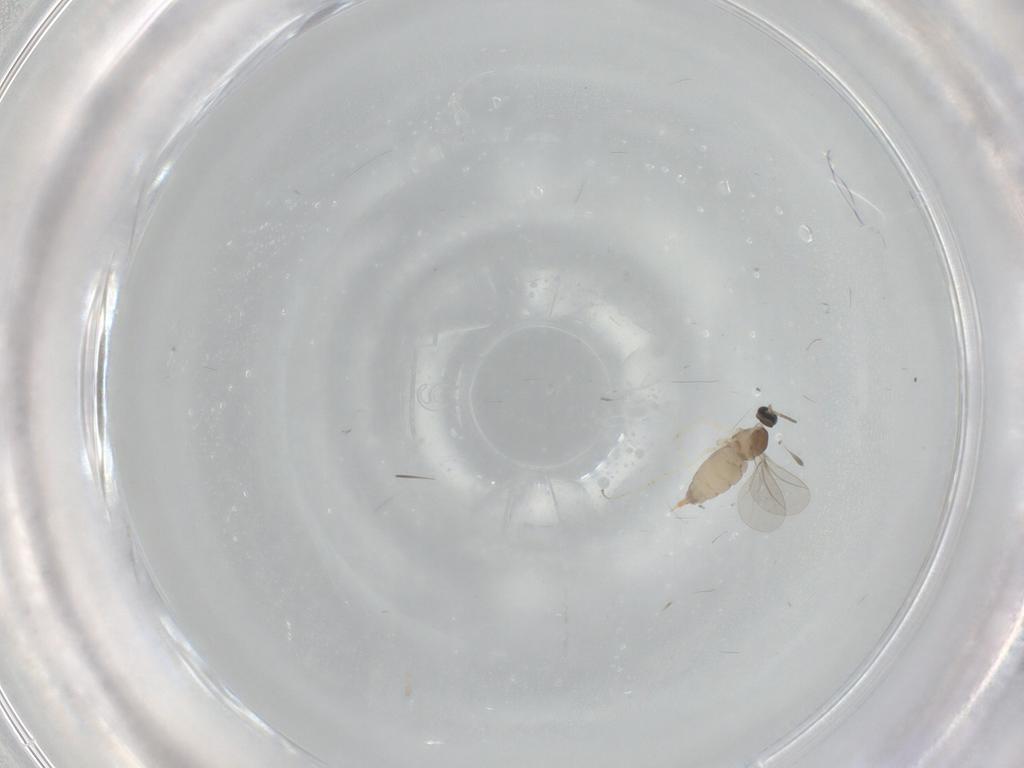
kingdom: Animalia
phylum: Arthropoda
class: Insecta
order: Diptera
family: Cecidomyiidae
